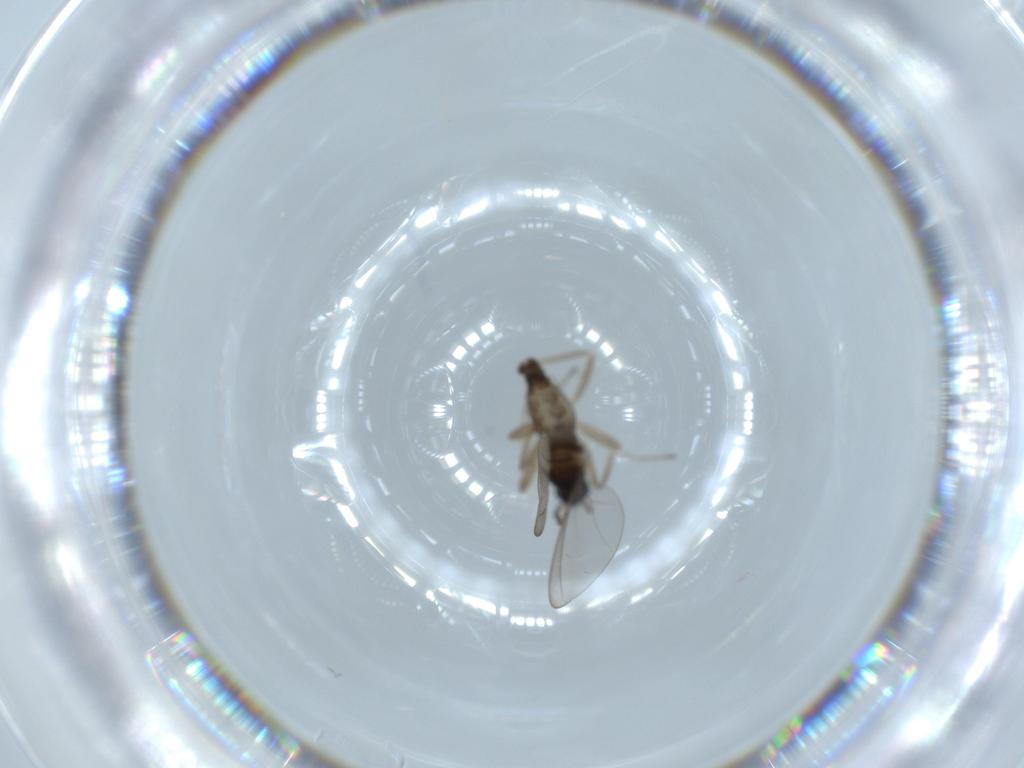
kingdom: Animalia
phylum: Arthropoda
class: Insecta
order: Diptera
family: Cecidomyiidae
